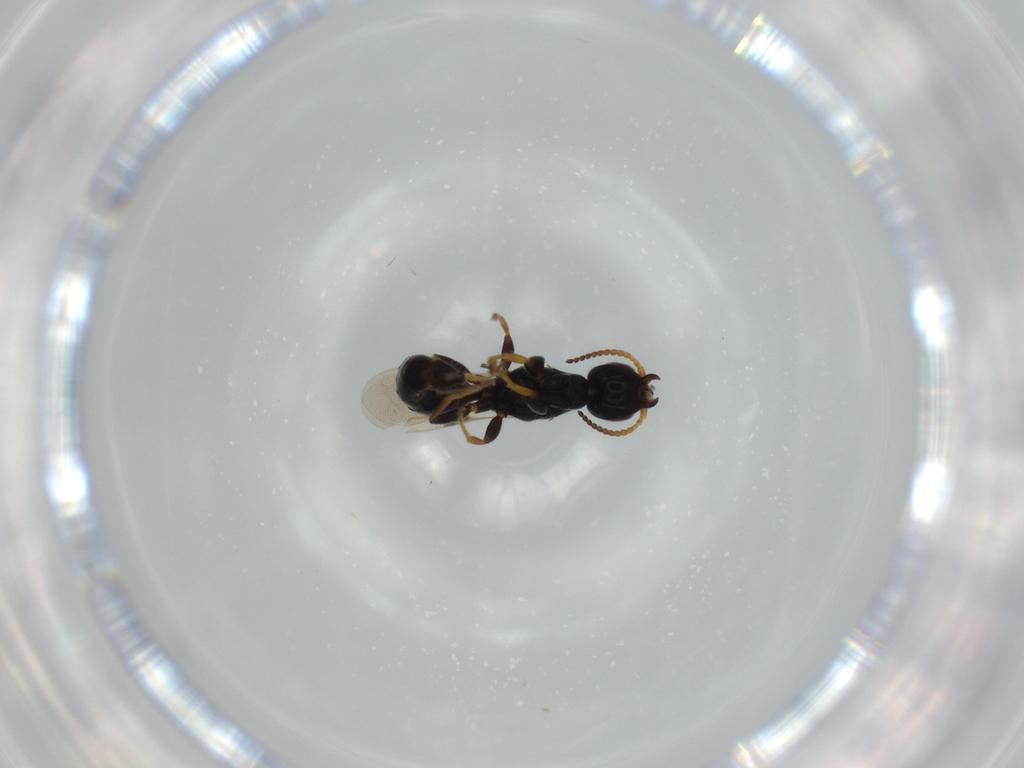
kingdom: Animalia
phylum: Arthropoda
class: Insecta
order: Hymenoptera
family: Bethylidae
